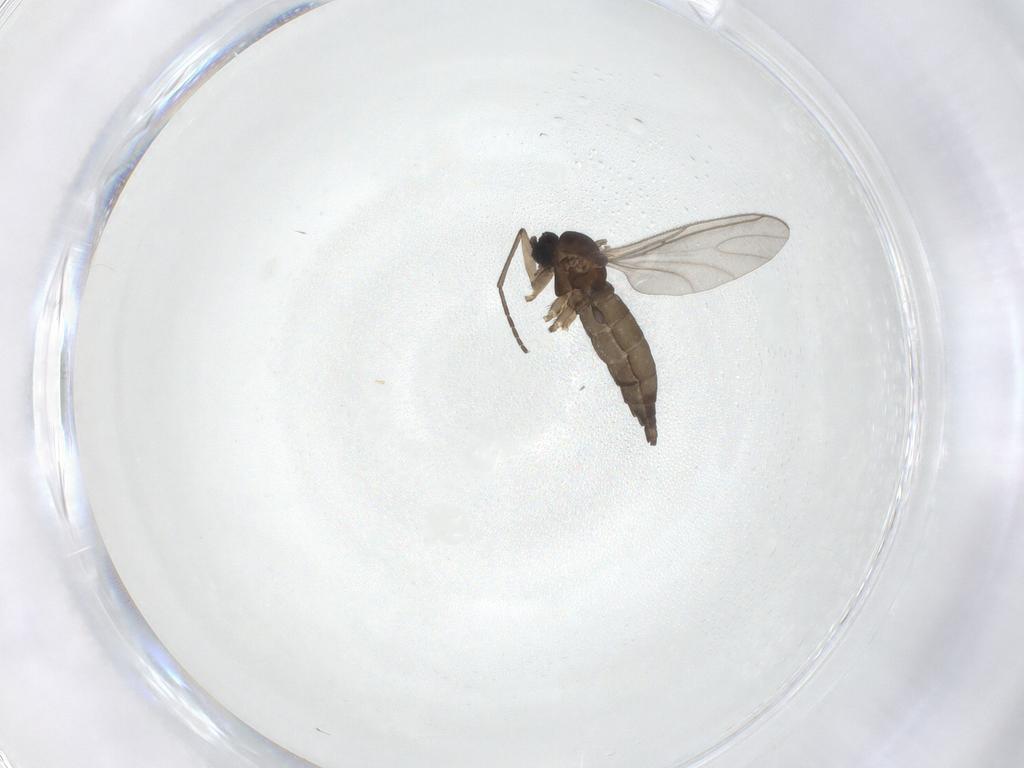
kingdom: Animalia
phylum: Arthropoda
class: Insecta
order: Diptera
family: Sciaridae
